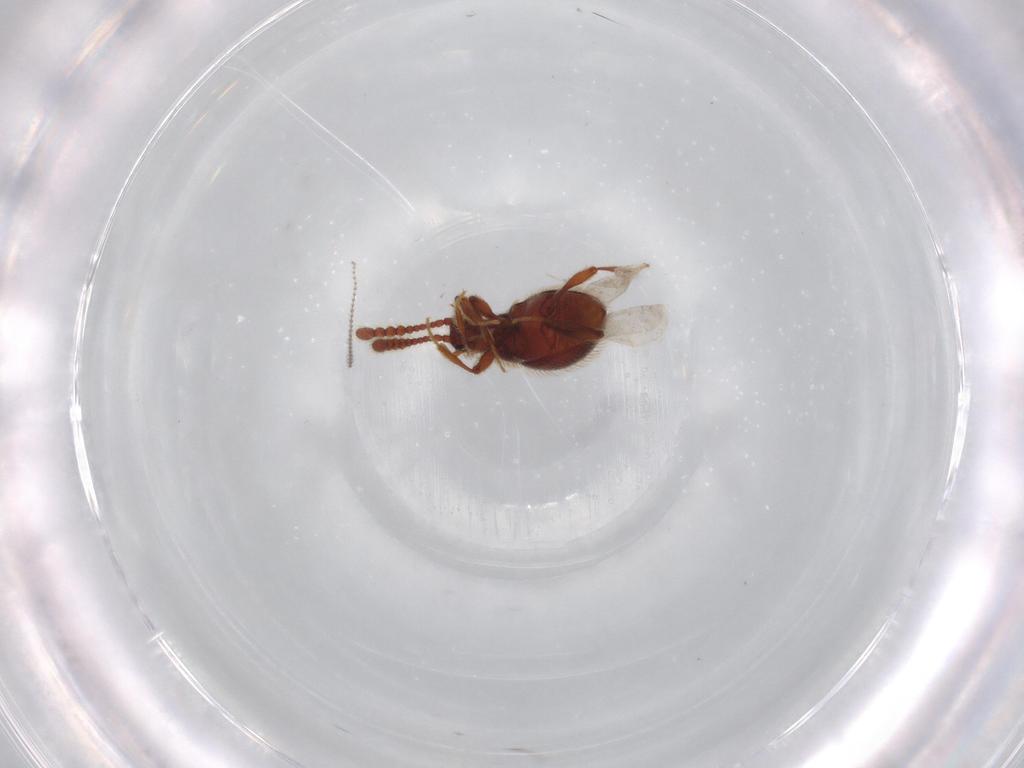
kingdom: Animalia
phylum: Arthropoda
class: Insecta
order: Coleoptera
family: Staphylinidae
